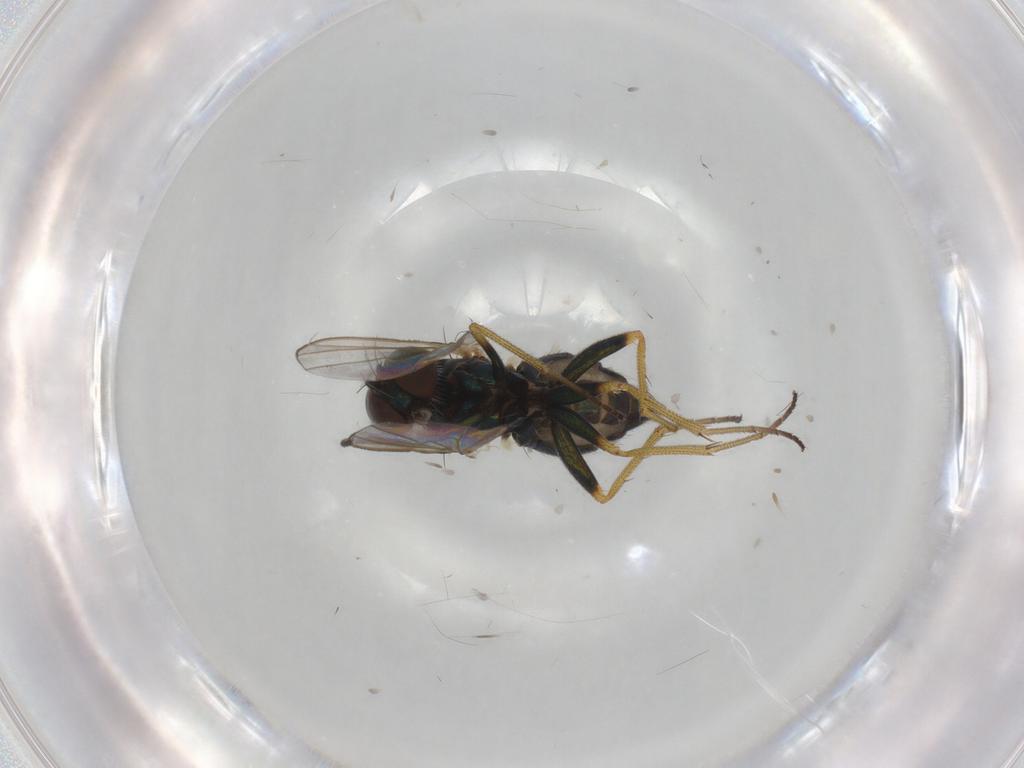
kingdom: Animalia
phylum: Arthropoda
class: Insecta
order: Diptera
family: Dolichopodidae
